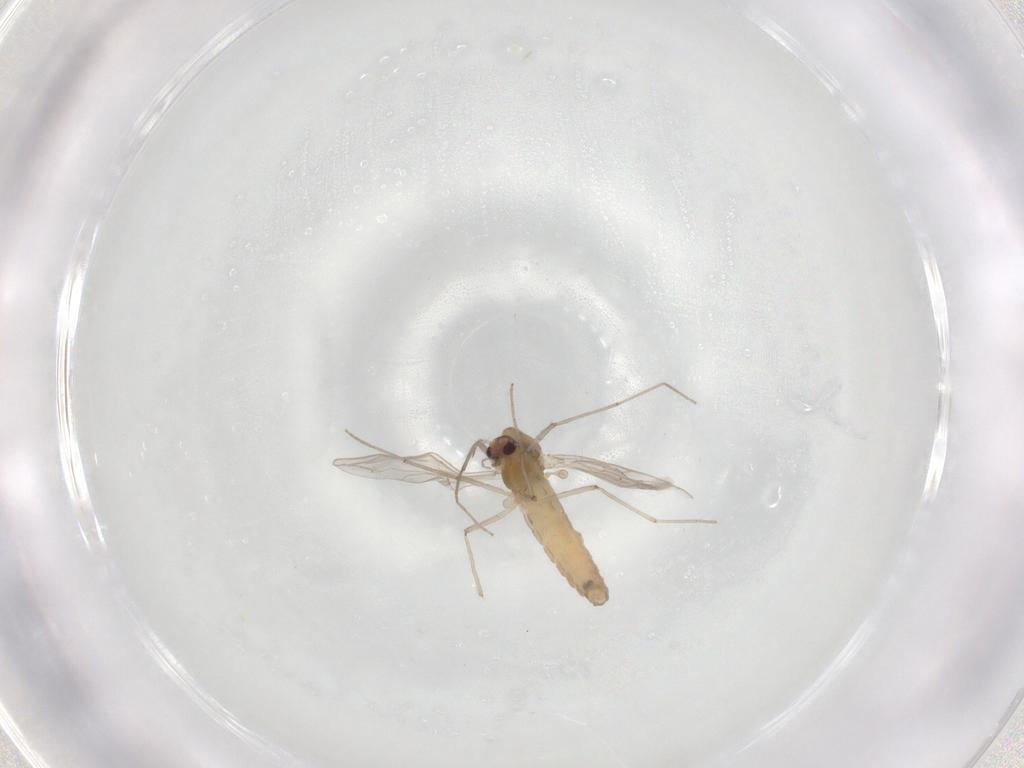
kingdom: Animalia
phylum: Arthropoda
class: Insecta
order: Diptera
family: Chironomidae
